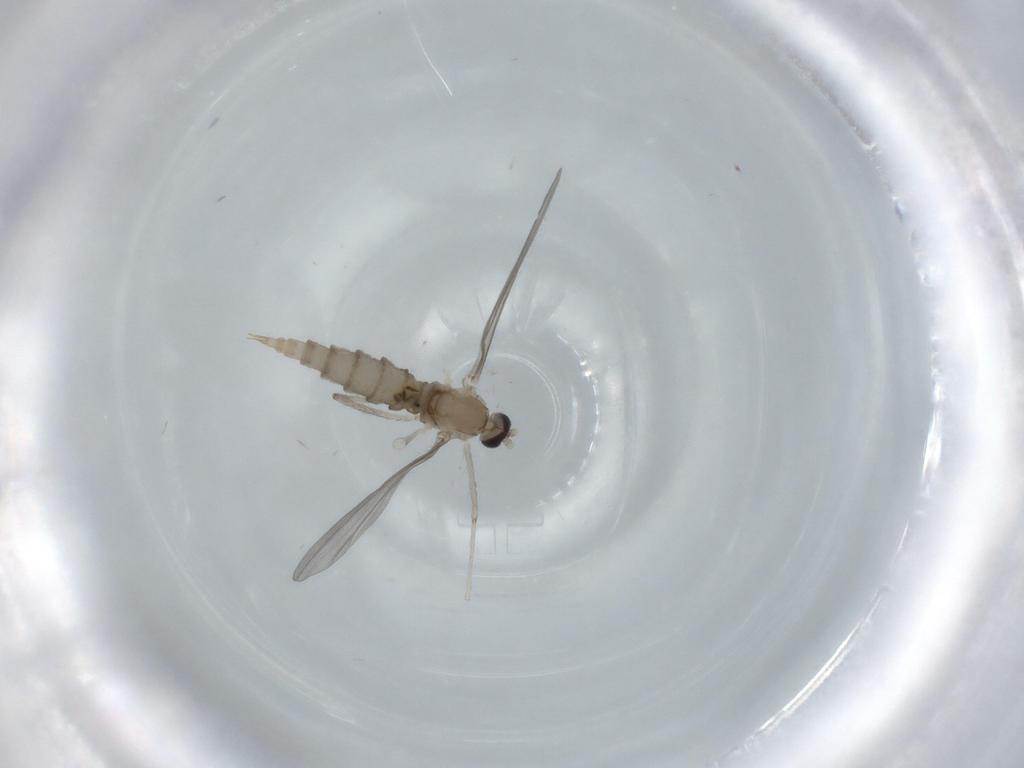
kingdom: Animalia
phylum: Arthropoda
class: Insecta
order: Diptera
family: Cecidomyiidae
